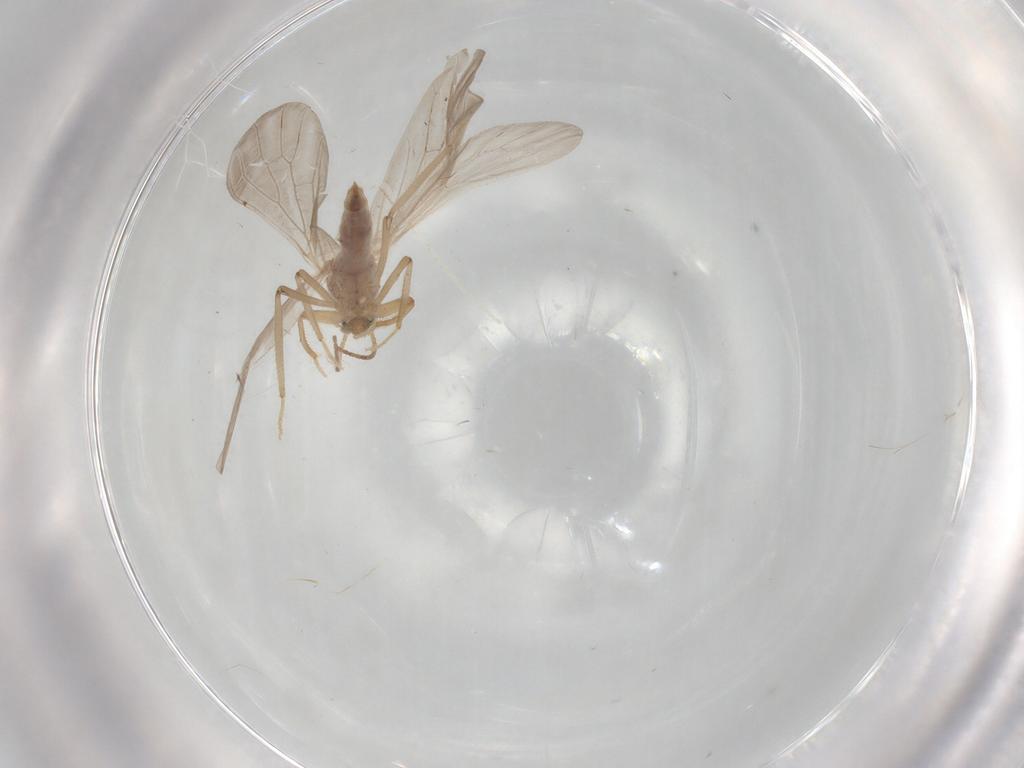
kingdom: Animalia
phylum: Arthropoda
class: Insecta
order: Neuroptera
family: Coniopterygidae
